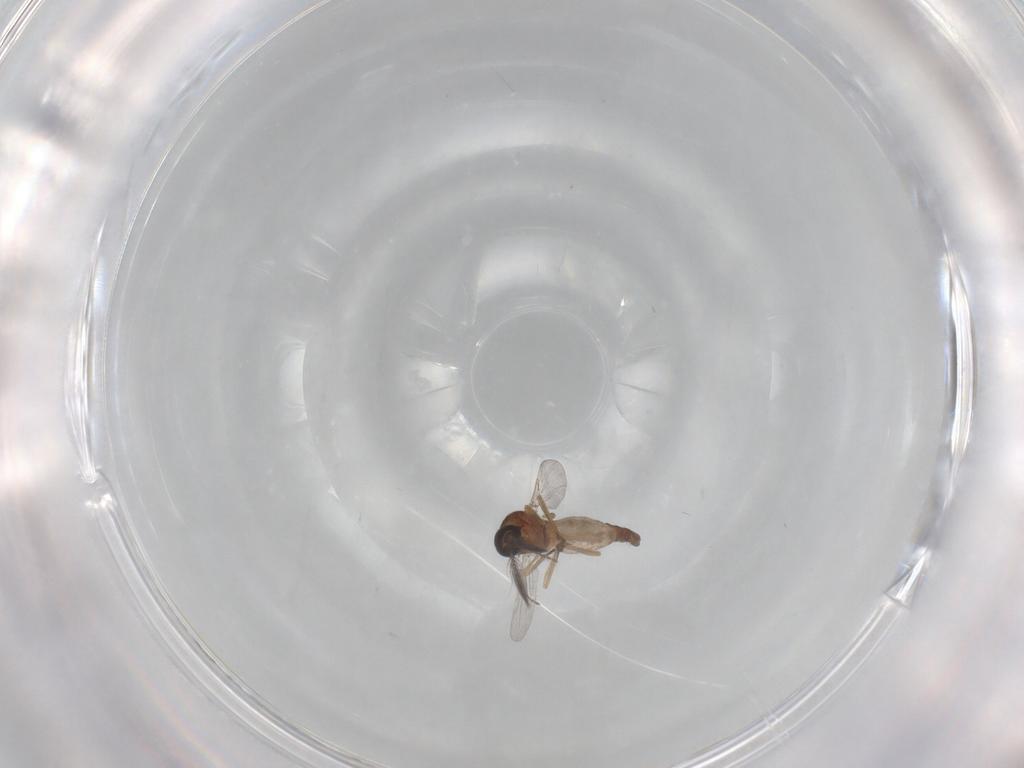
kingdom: Animalia
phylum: Arthropoda
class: Insecta
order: Diptera
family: Ceratopogonidae
